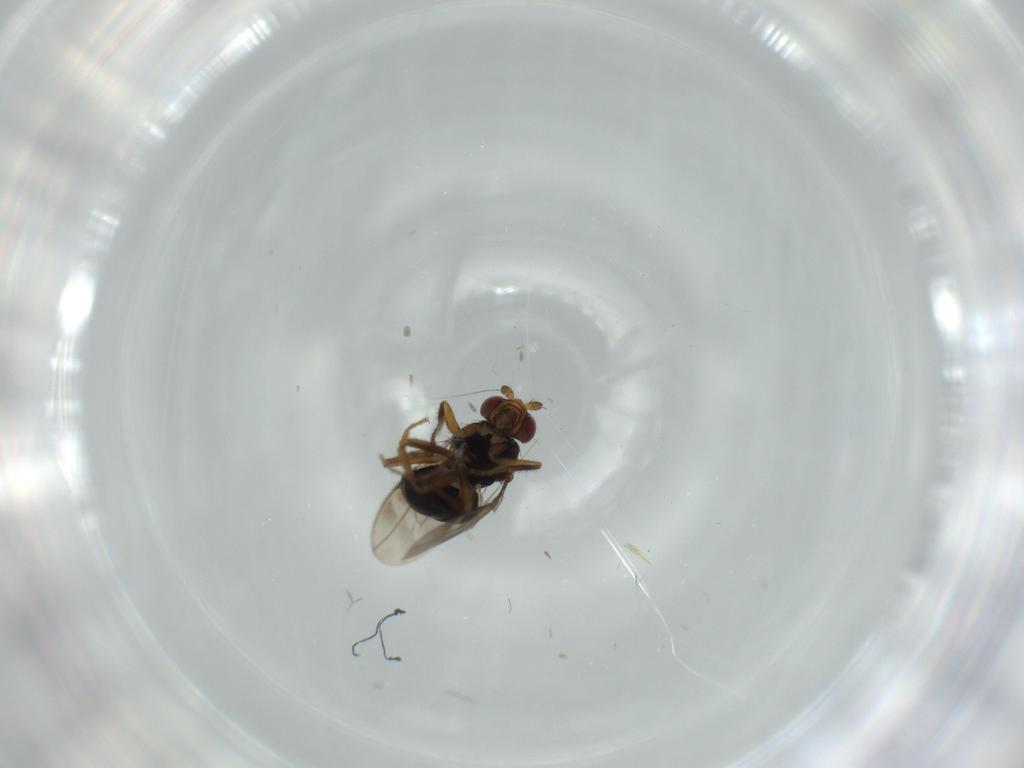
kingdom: Animalia
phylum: Arthropoda
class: Insecta
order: Diptera
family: Sphaeroceridae
